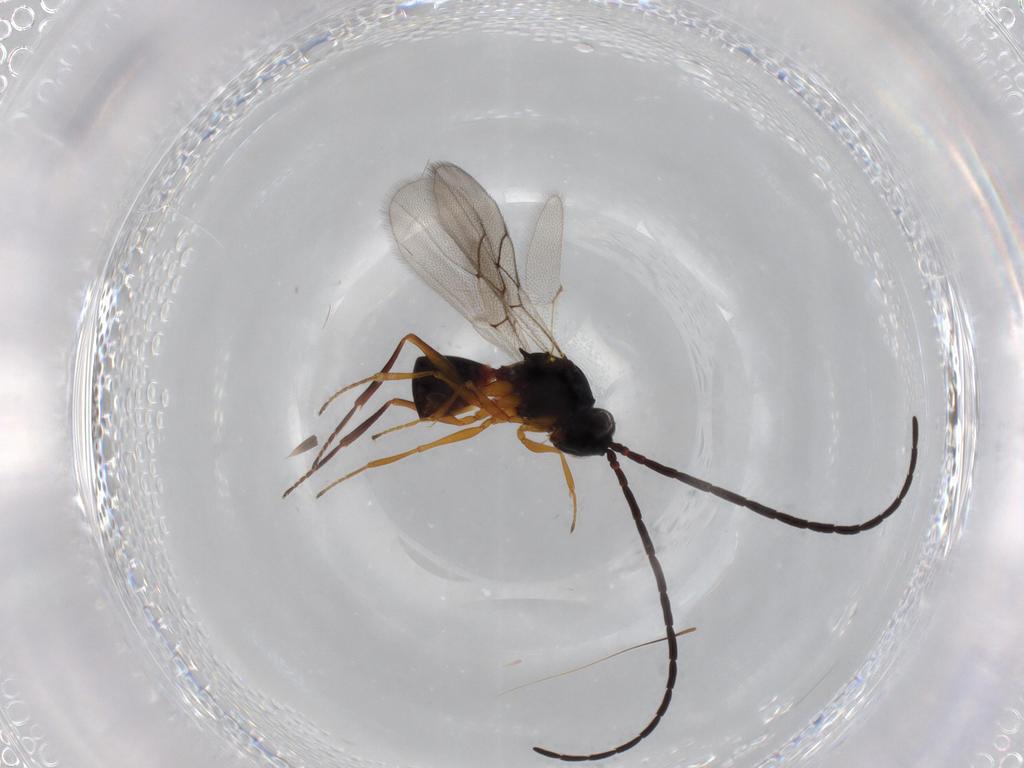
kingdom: Animalia
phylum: Arthropoda
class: Insecta
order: Hymenoptera
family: Figitidae
